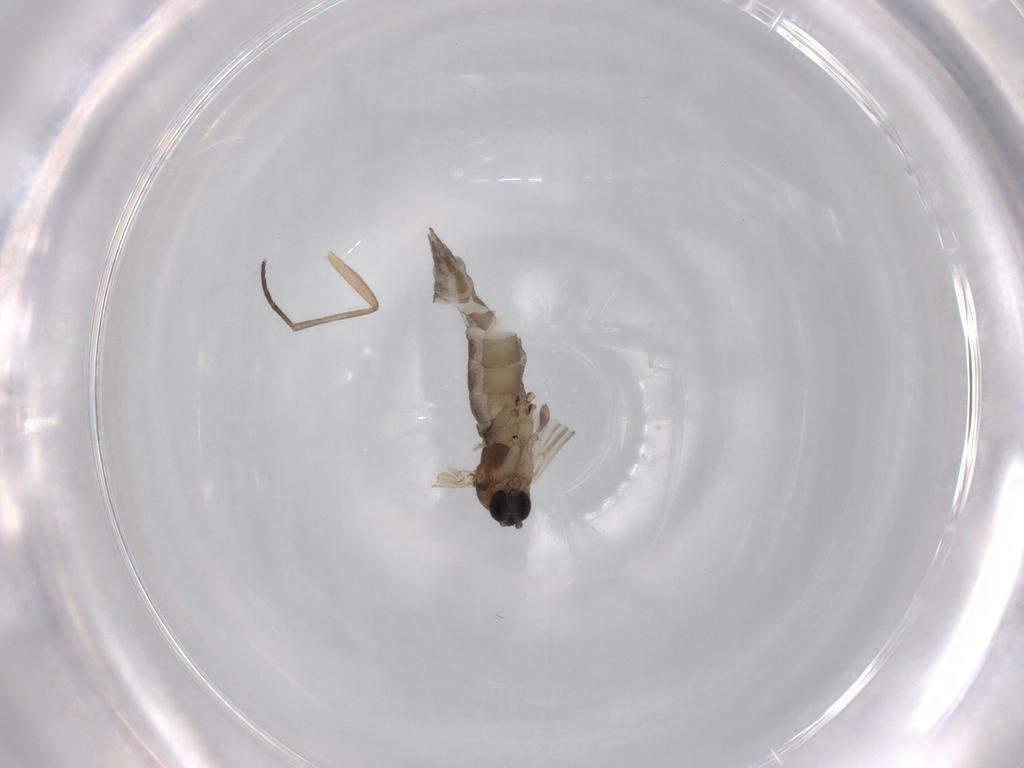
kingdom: Animalia
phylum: Arthropoda
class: Insecta
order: Diptera
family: Sciaridae
